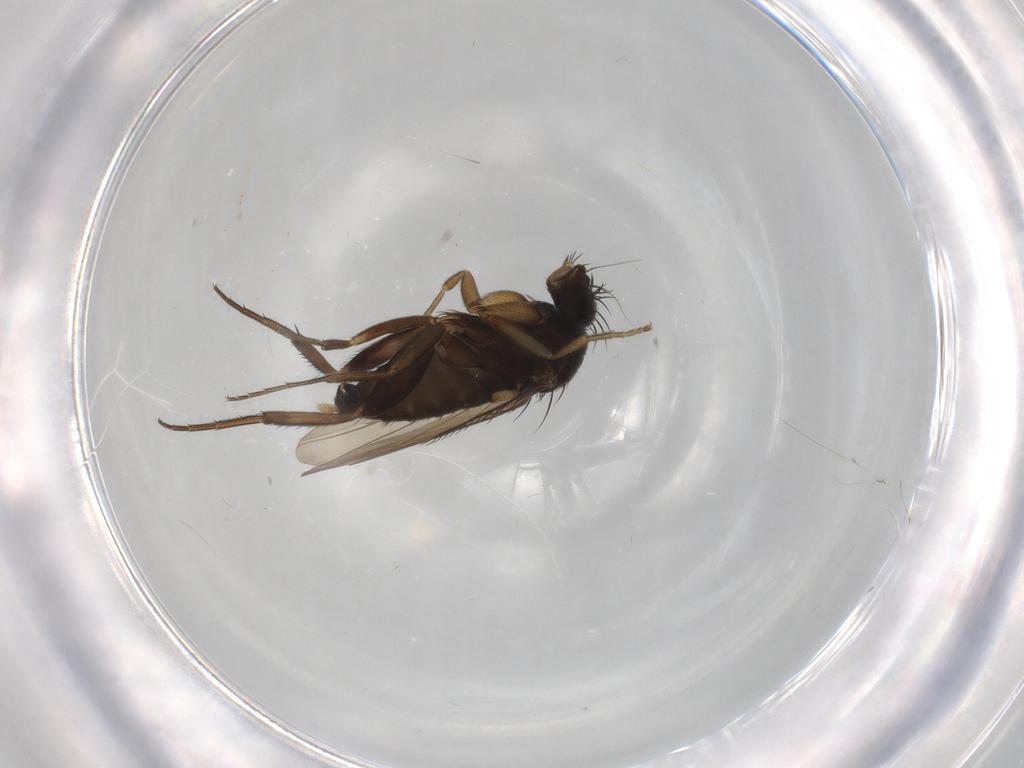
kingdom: Animalia
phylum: Arthropoda
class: Insecta
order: Diptera
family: Phoridae
